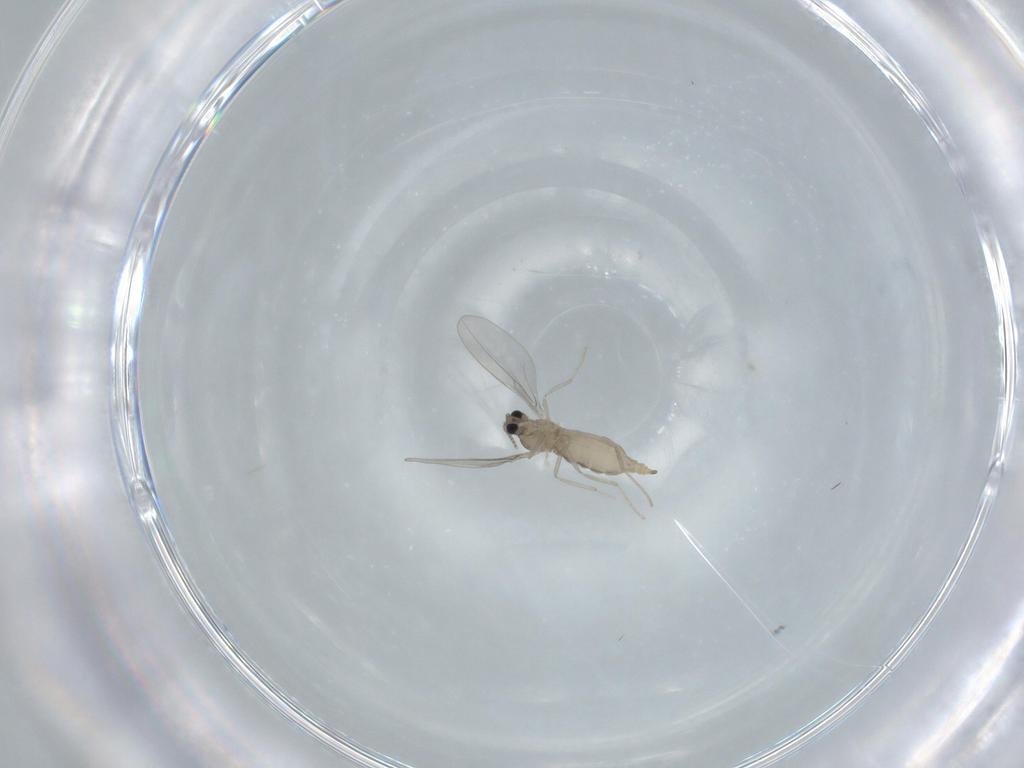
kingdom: Animalia
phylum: Arthropoda
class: Insecta
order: Diptera
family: Cecidomyiidae
